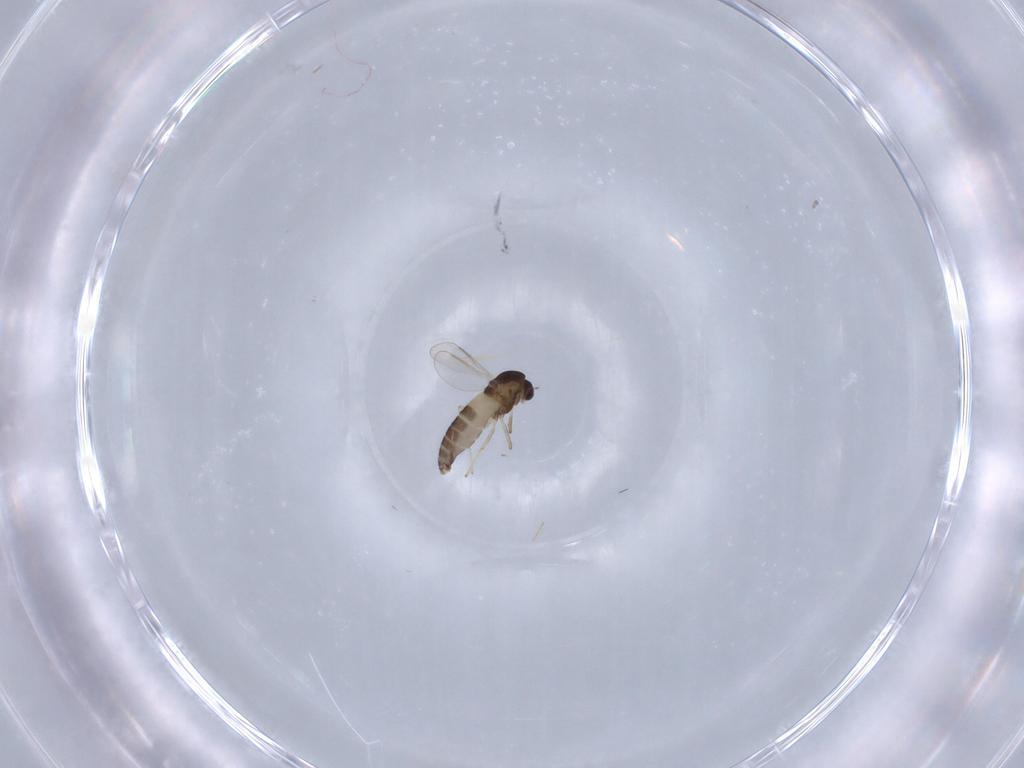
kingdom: Animalia
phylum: Arthropoda
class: Insecta
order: Diptera
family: Chironomidae
